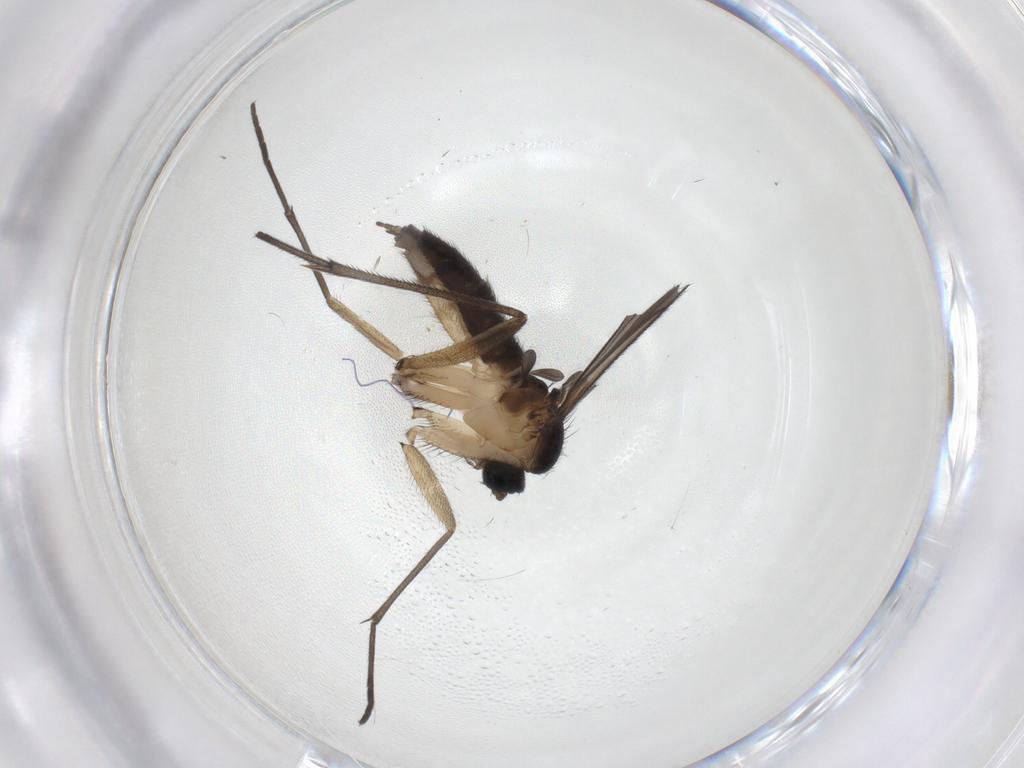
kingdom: Animalia
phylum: Arthropoda
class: Insecta
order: Diptera
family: Sciaridae
